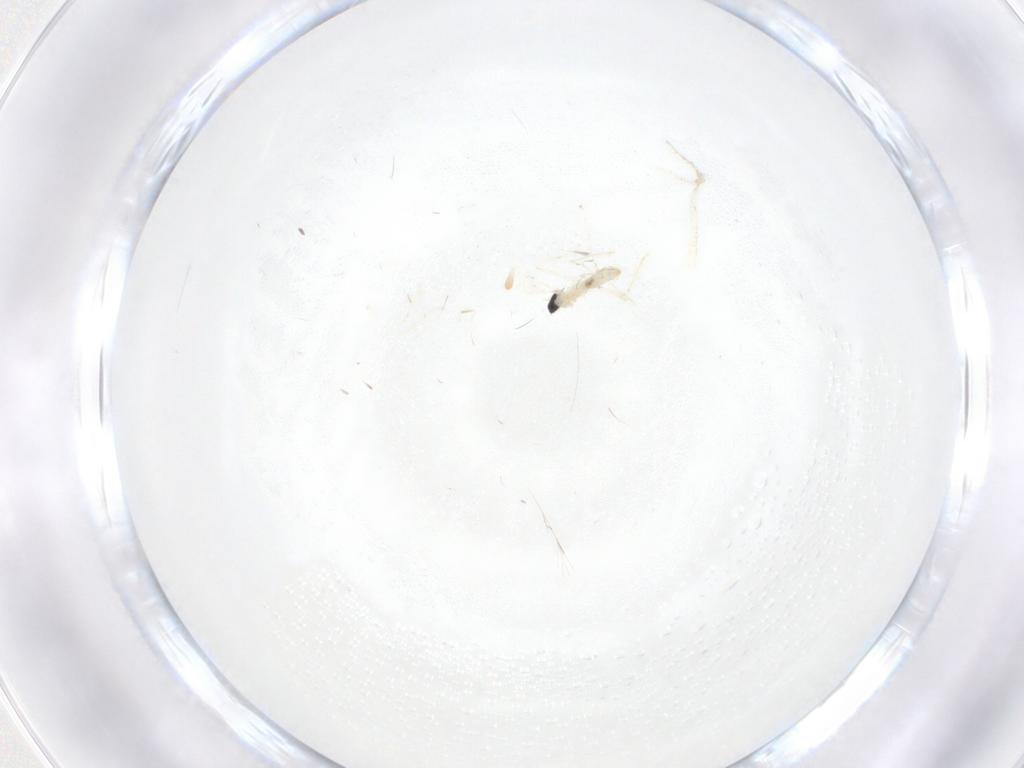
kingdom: Animalia
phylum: Arthropoda
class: Insecta
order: Diptera
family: Cecidomyiidae
